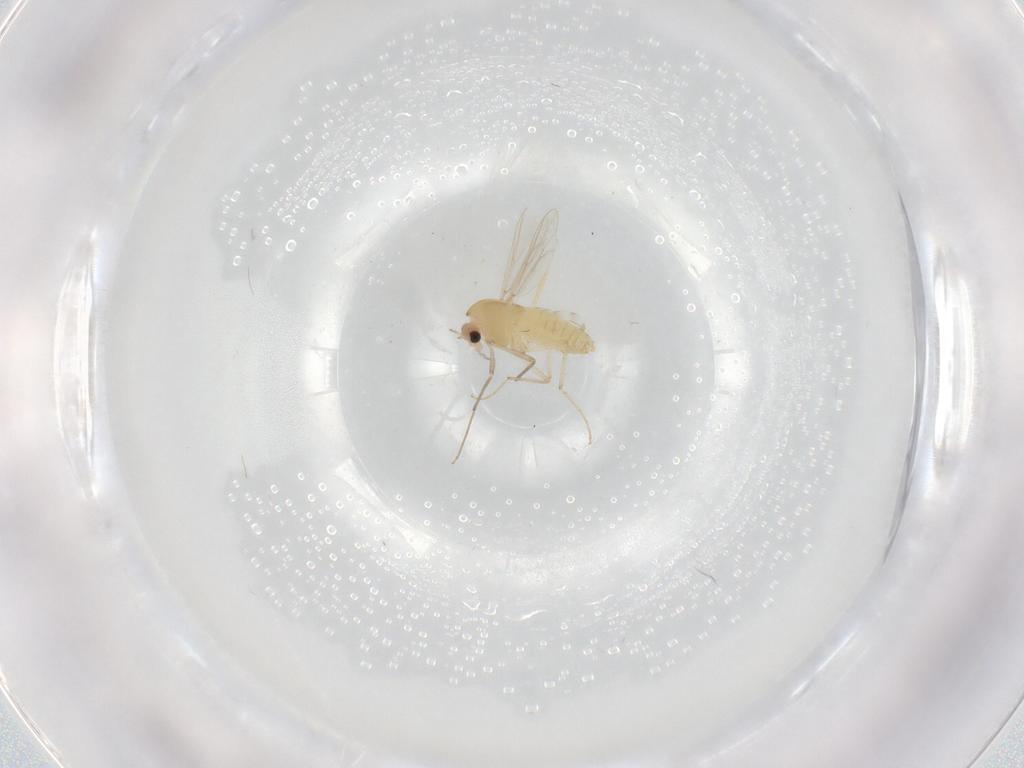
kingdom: Animalia
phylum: Arthropoda
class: Insecta
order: Diptera
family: Chironomidae
